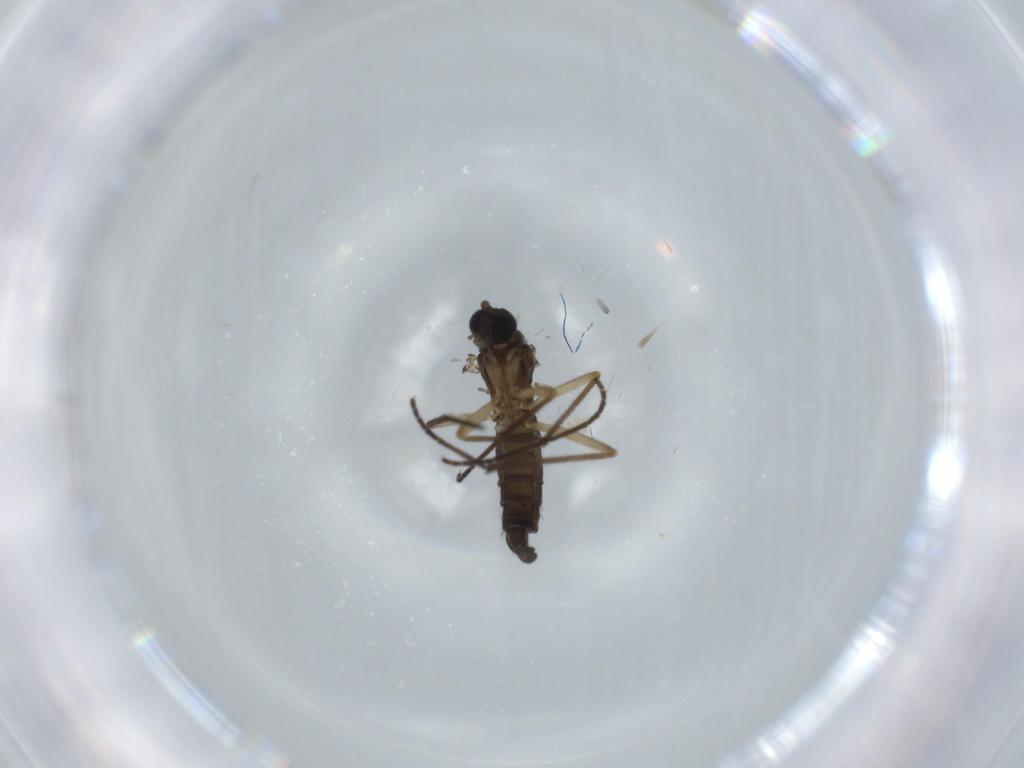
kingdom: Animalia
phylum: Arthropoda
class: Insecta
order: Diptera
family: Sciaridae
